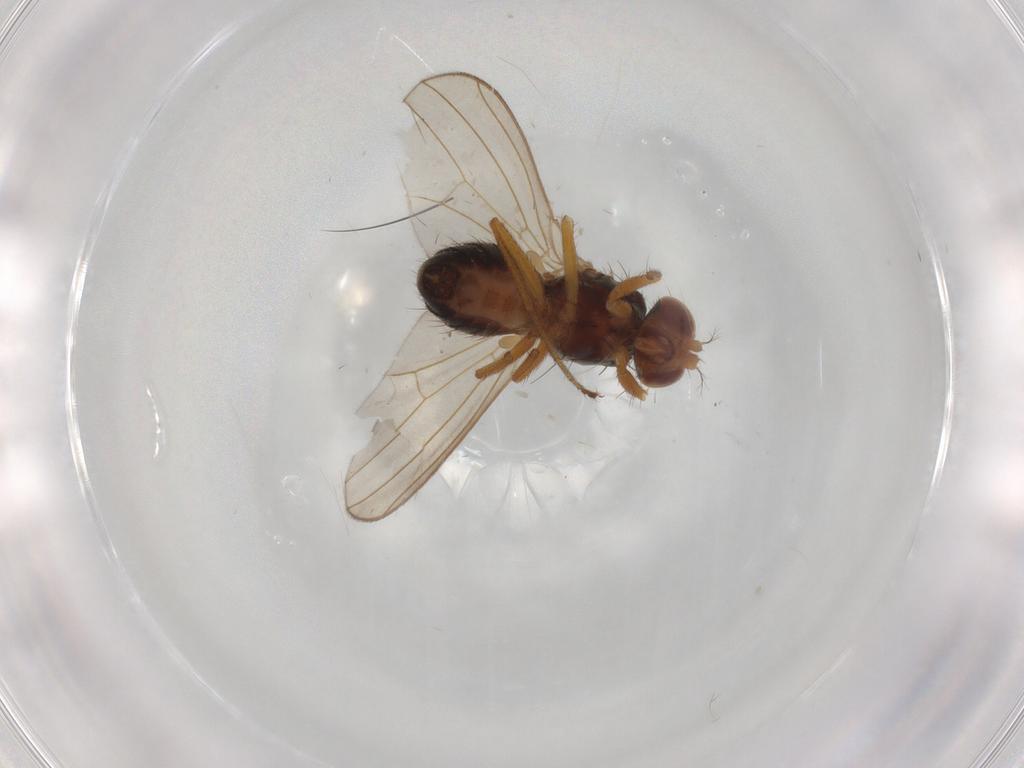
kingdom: Animalia
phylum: Arthropoda
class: Insecta
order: Diptera
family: Drosophilidae
